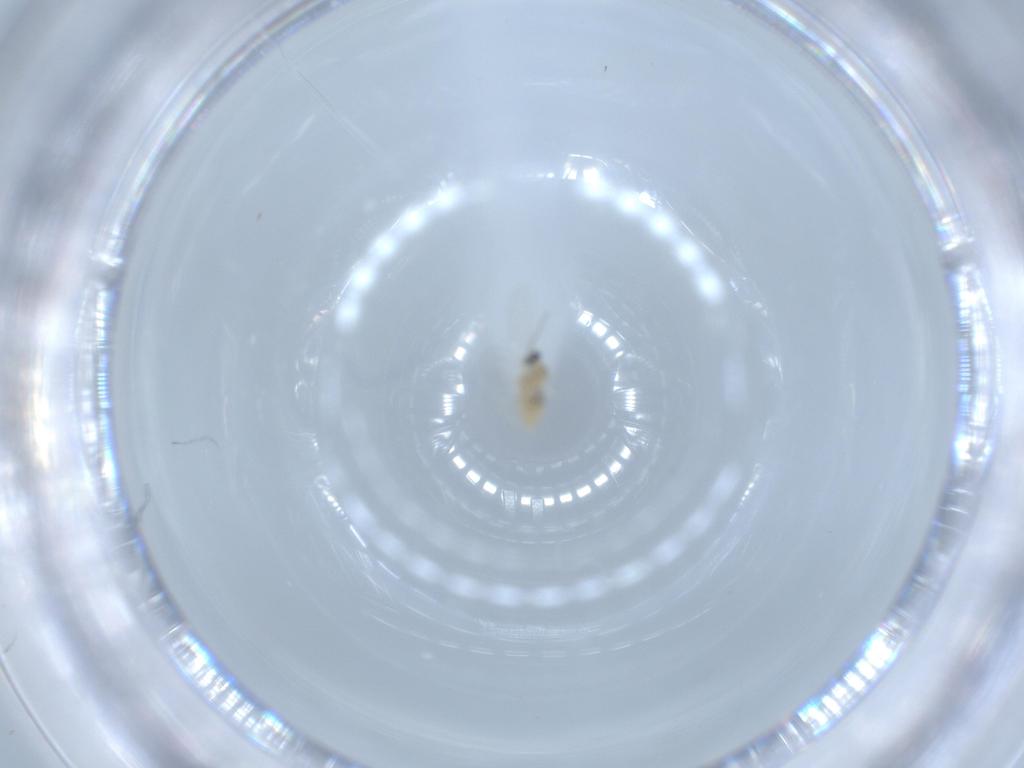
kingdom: Animalia
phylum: Arthropoda
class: Insecta
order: Diptera
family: Cecidomyiidae
